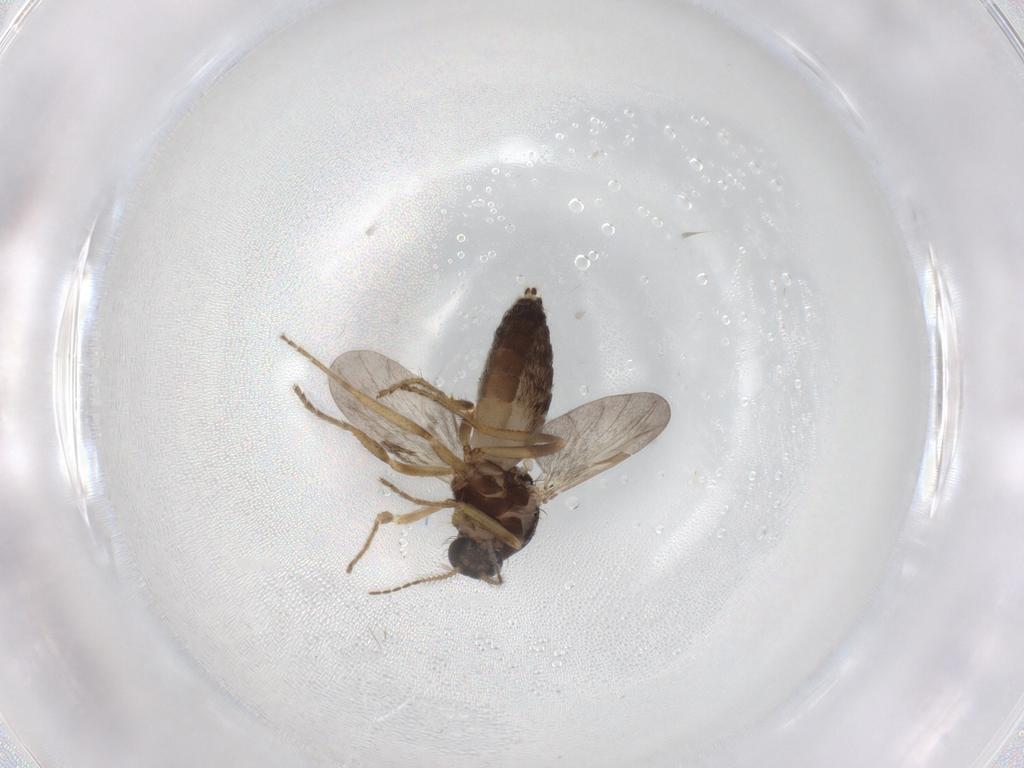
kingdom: Animalia
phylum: Arthropoda
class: Insecta
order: Diptera
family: Ceratopogonidae
